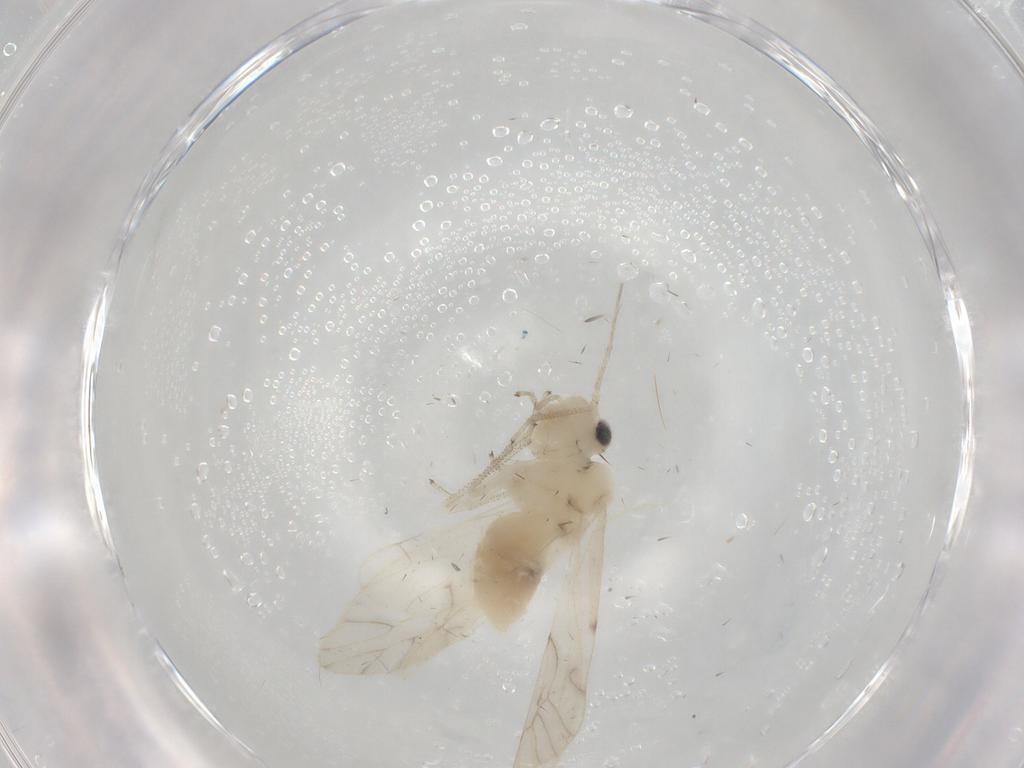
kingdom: Animalia
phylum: Arthropoda
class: Insecta
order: Psocodea
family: Caeciliusidae
